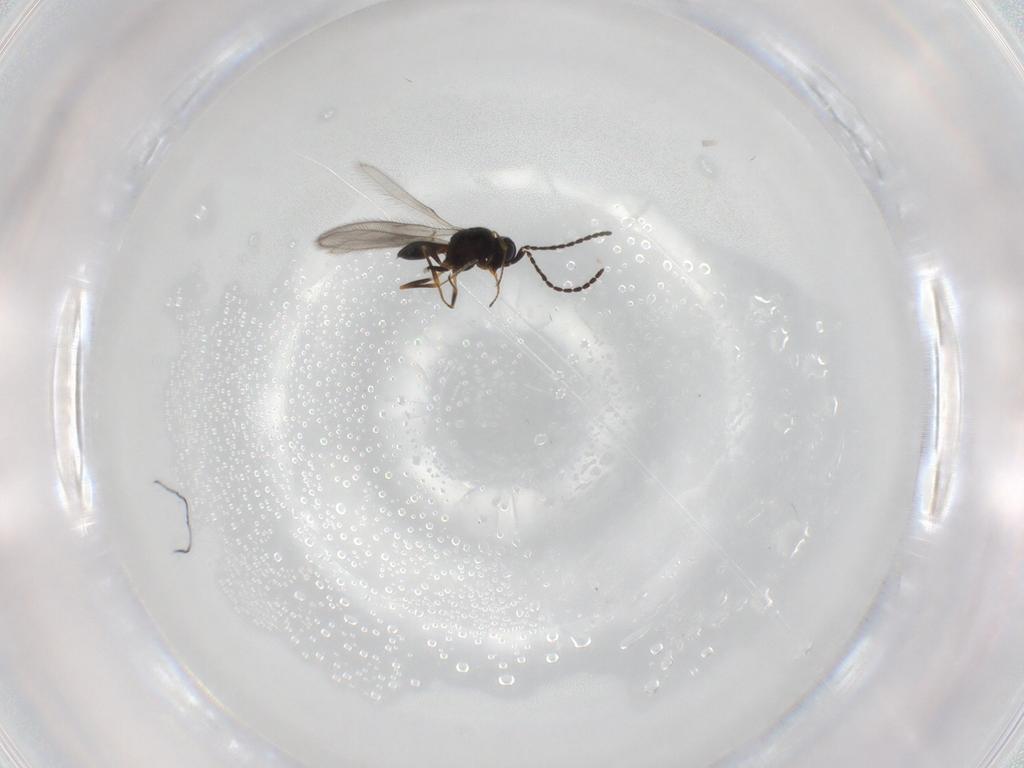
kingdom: Animalia
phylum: Arthropoda
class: Insecta
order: Hymenoptera
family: Scelionidae
